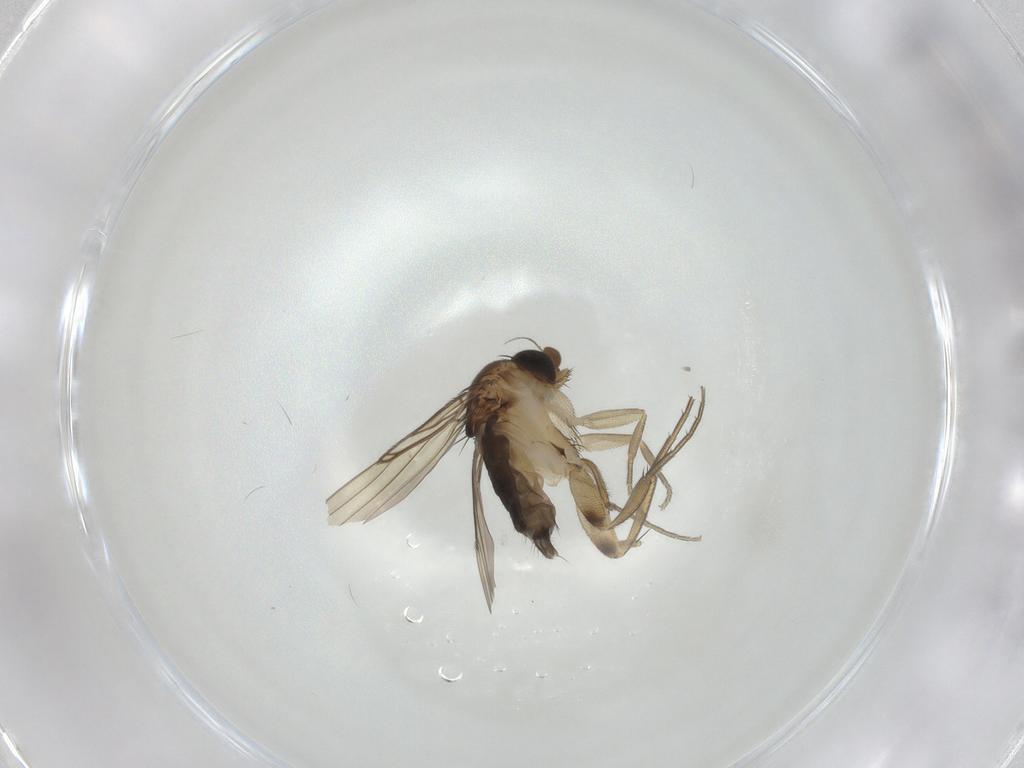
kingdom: Animalia
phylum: Arthropoda
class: Insecta
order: Diptera
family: Phoridae
